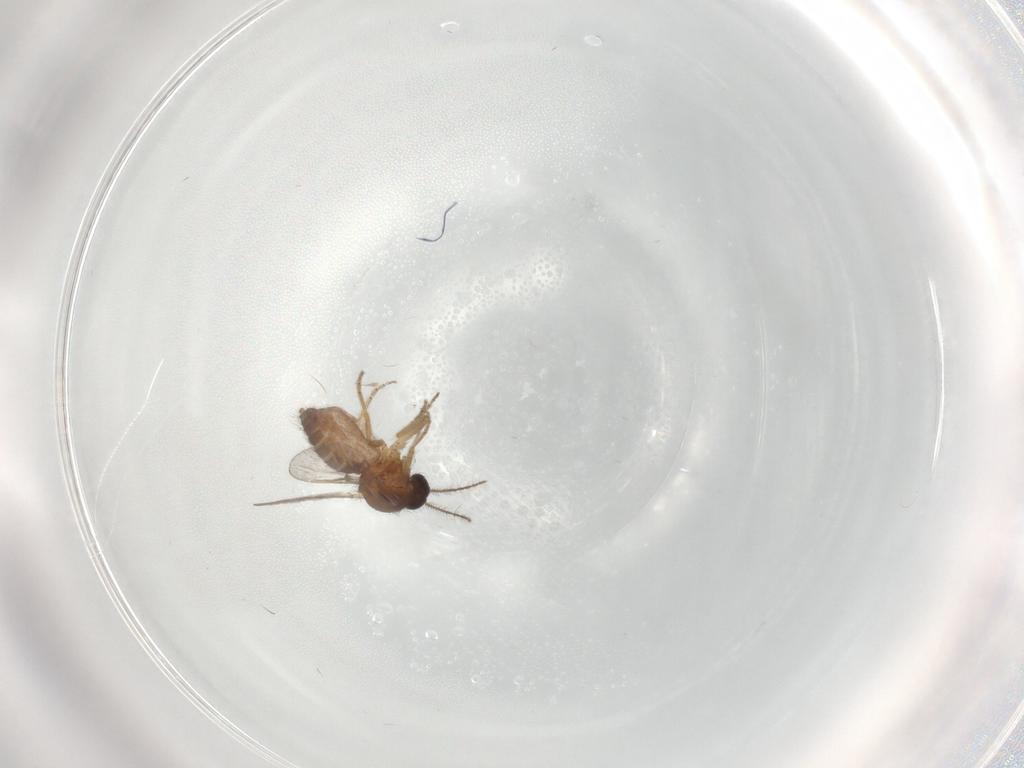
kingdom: Animalia
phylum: Arthropoda
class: Insecta
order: Diptera
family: Ceratopogonidae
